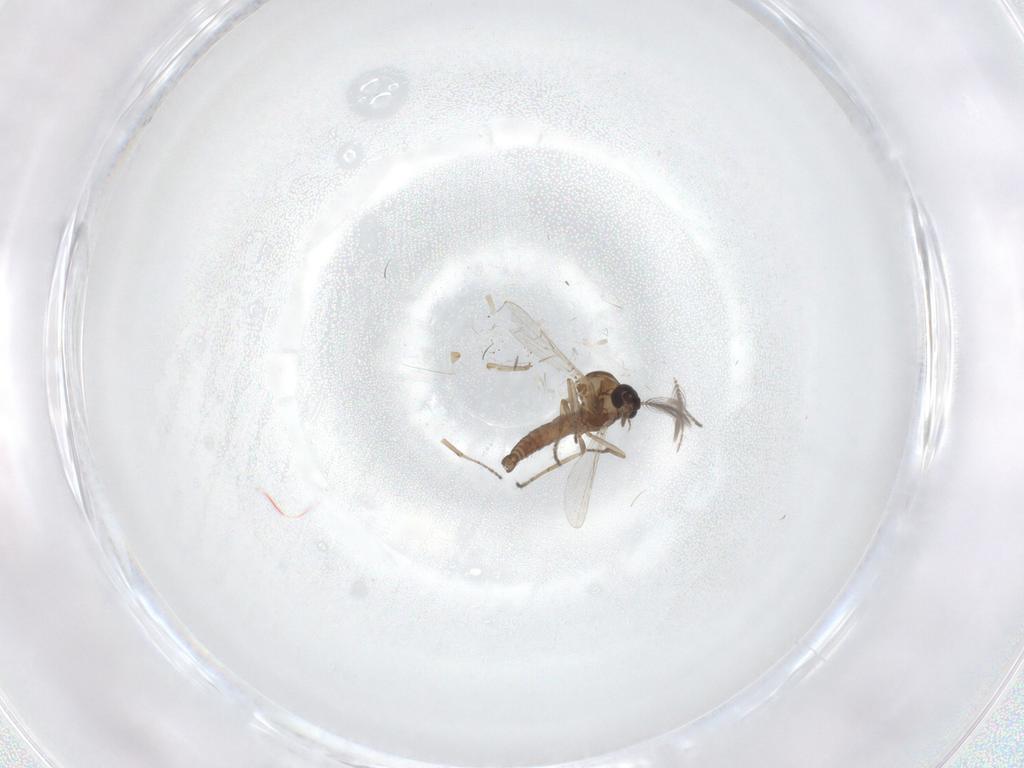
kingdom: Animalia
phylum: Arthropoda
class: Insecta
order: Diptera
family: Ceratopogonidae
